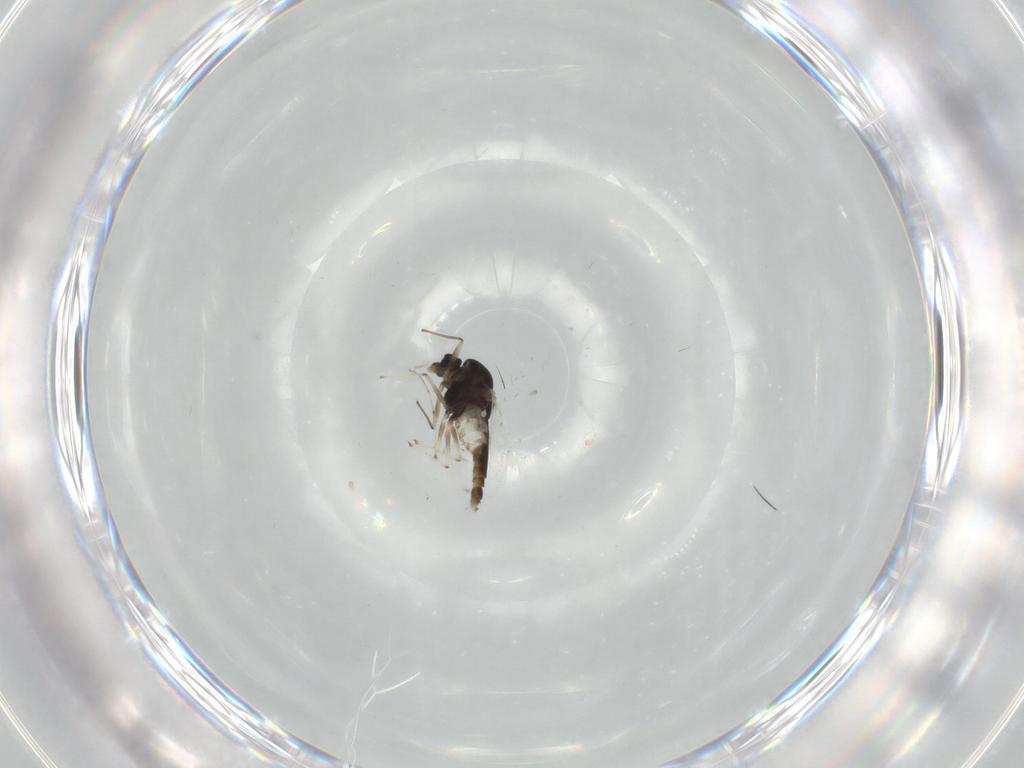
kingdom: Animalia
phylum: Arthropoda
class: Insecta
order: Diptera
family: Chironomidae
